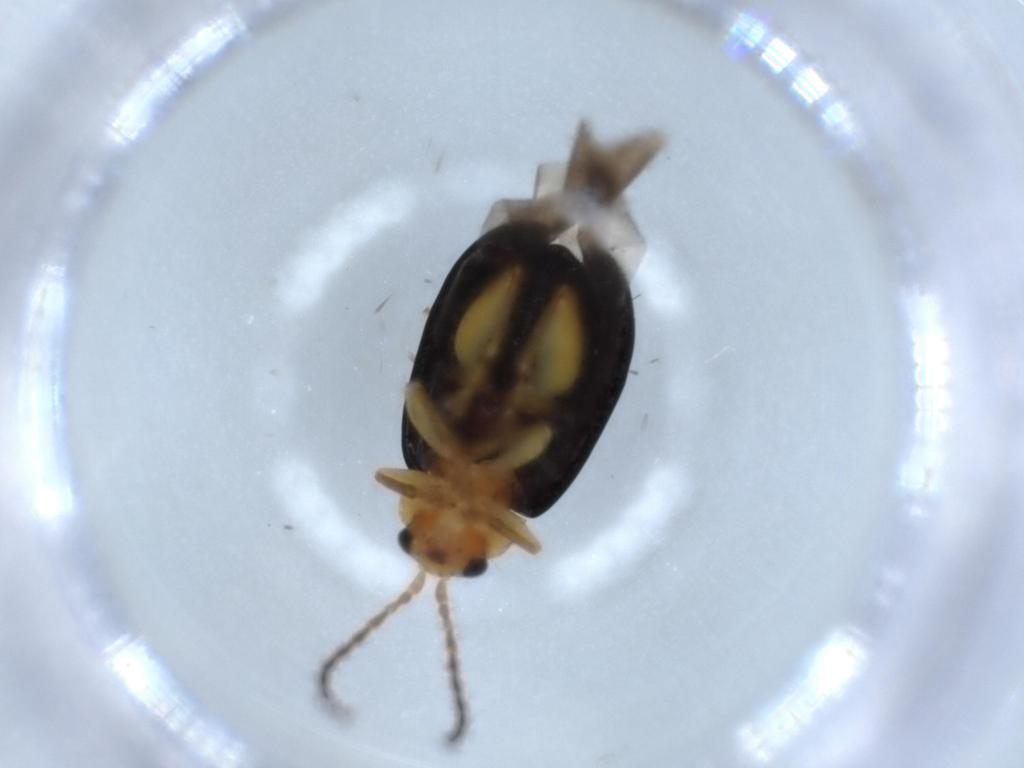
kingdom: Animalia
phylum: Arthropoda
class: Insecta
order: Coleoptera
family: Chrysomelidae
